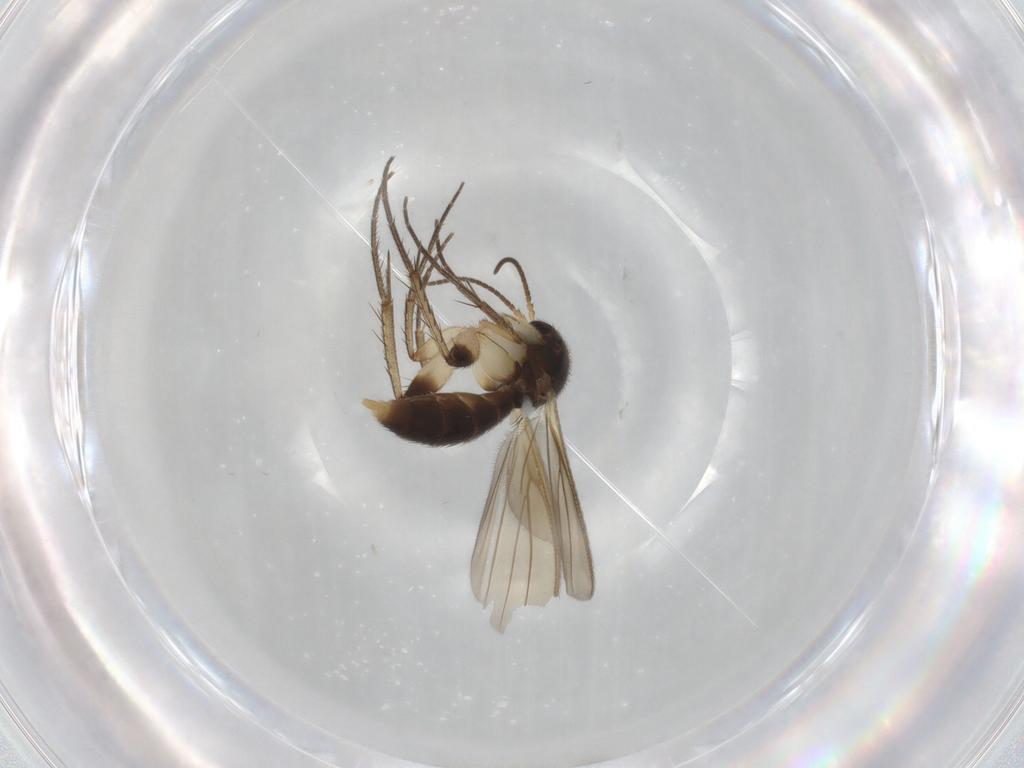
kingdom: Animalia
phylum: Arthropoda
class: Insecta
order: Diptera
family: Mycetophilidae
